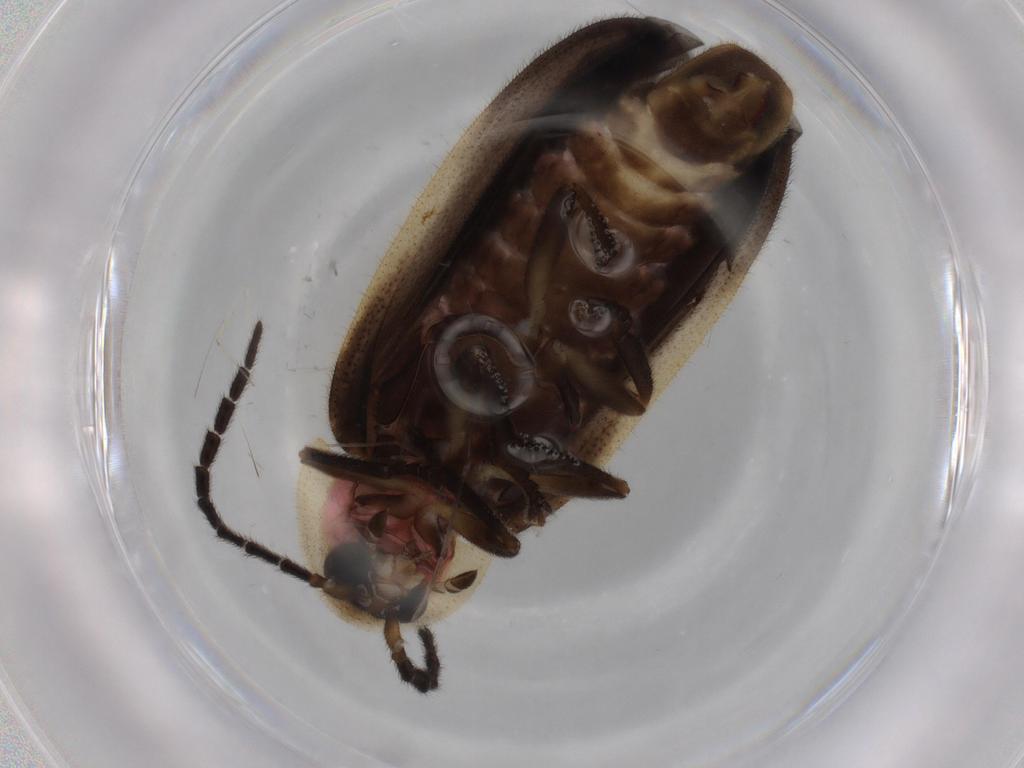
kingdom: Animalia
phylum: Arthropoda
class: Insecta
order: Coleoptera
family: Lampyridae
